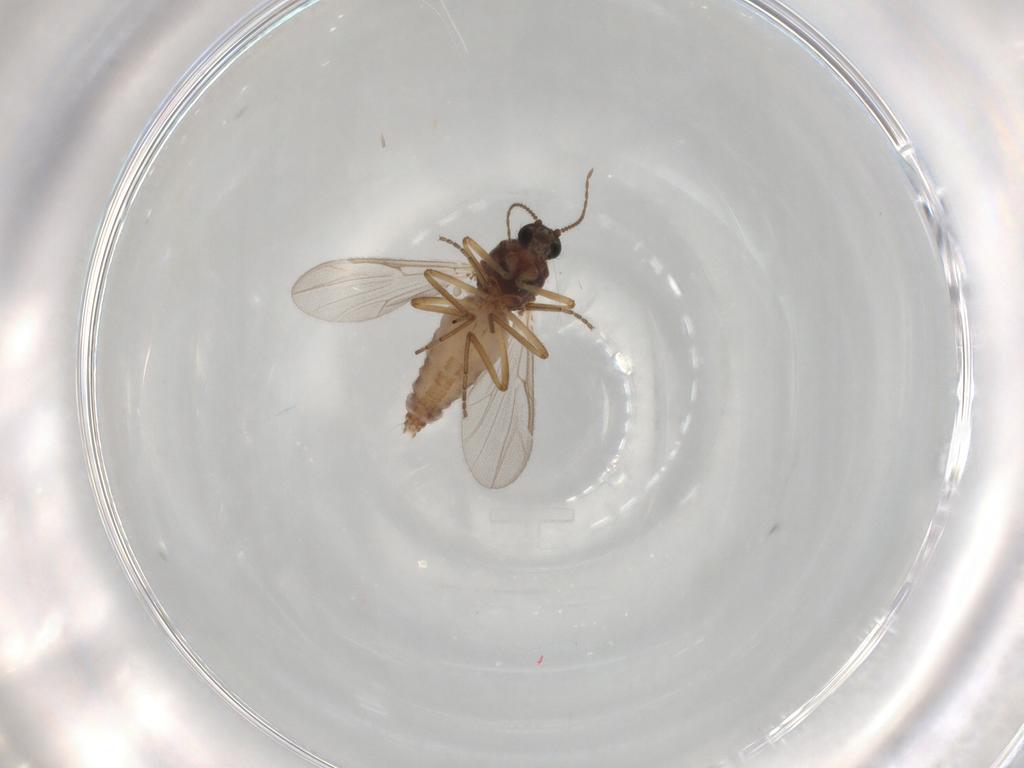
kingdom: Animalia
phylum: Arthropoda
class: Insecta
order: Diptera
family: Ceratopogonidae
